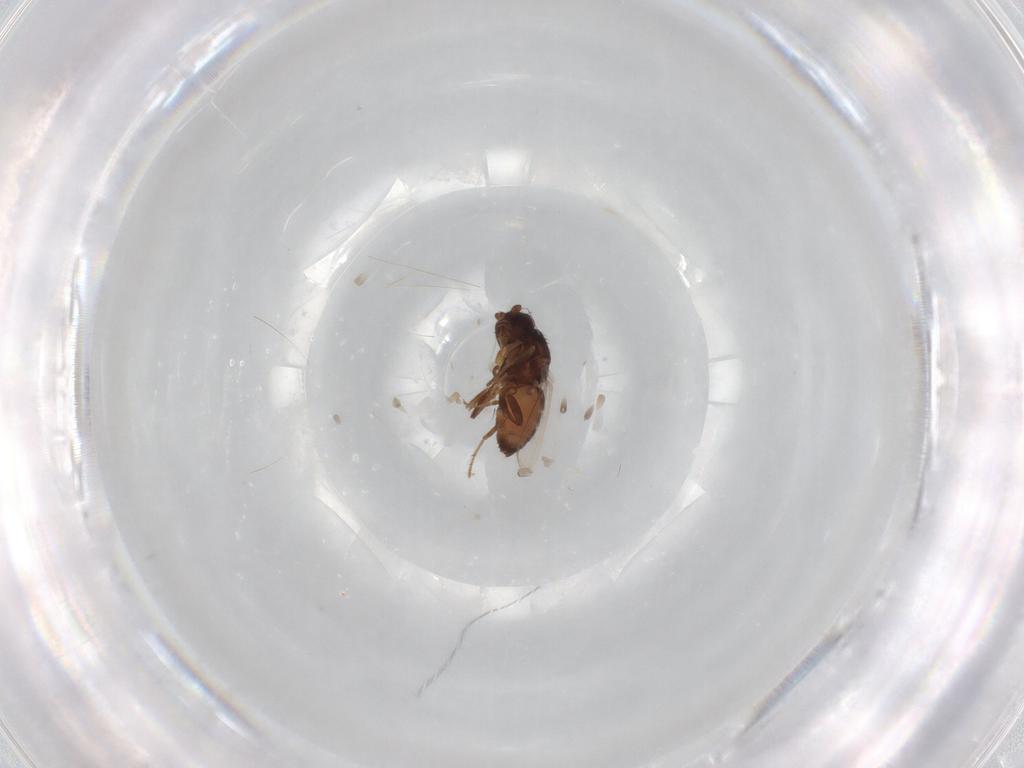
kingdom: Animalia
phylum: Arthropoda
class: Insecta
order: Diptera
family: Sphaeroceridae
